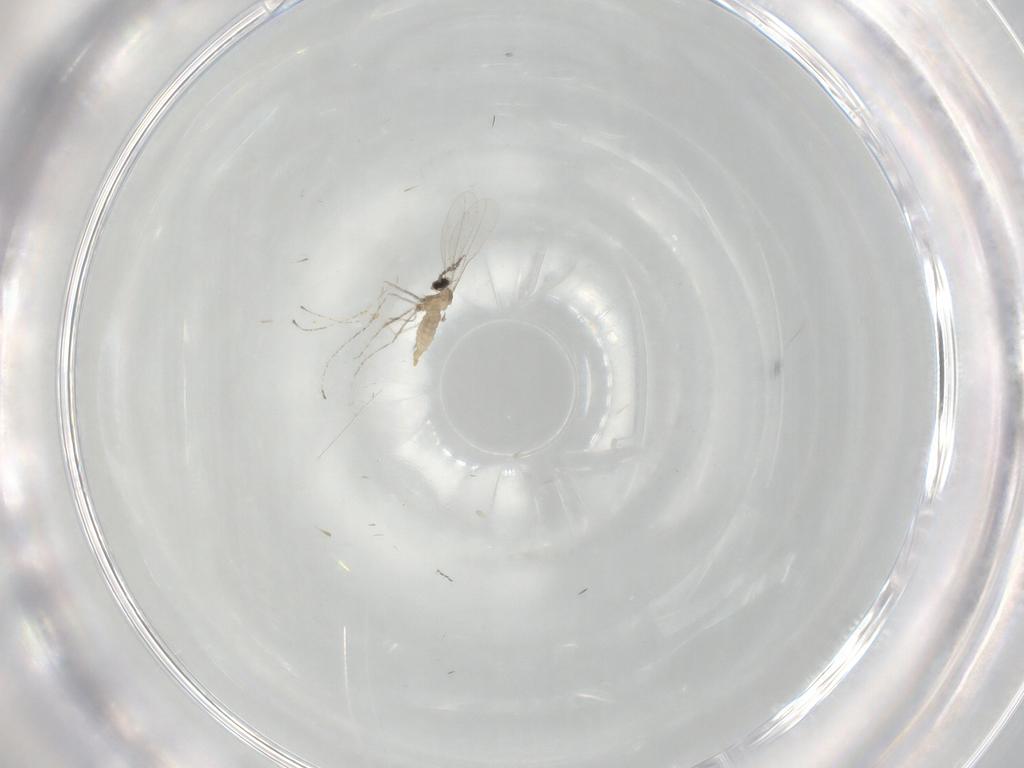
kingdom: Animalia
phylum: Arthropoda
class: Insecta
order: Diptera
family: Cecidomyiidae
